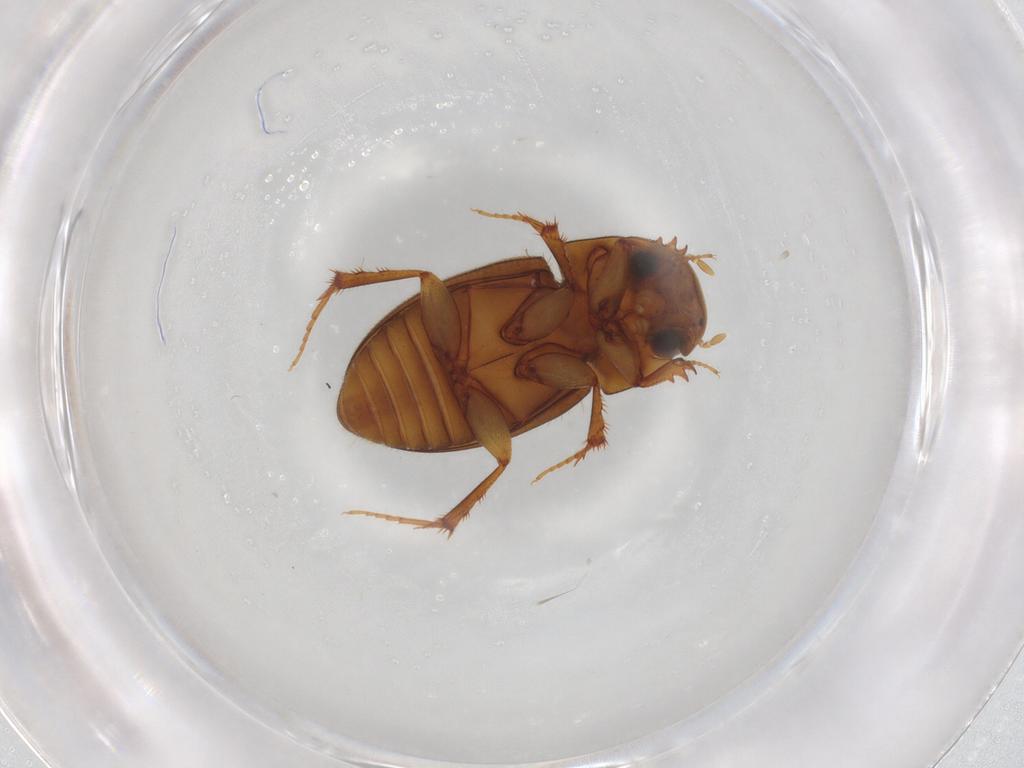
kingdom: Animalia
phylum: Arthropoda
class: Insecta
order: Coleoptera
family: Scarabaeidae
